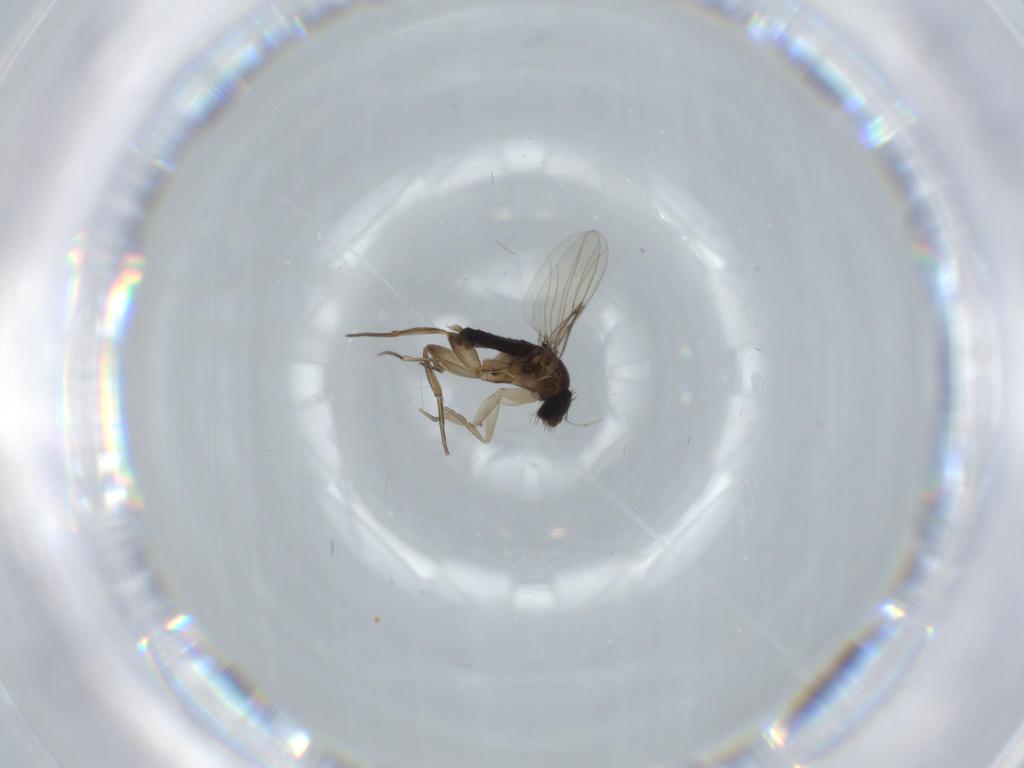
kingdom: Animalia
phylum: Arthropoda
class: Insecta
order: Diptera
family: Phoridae
